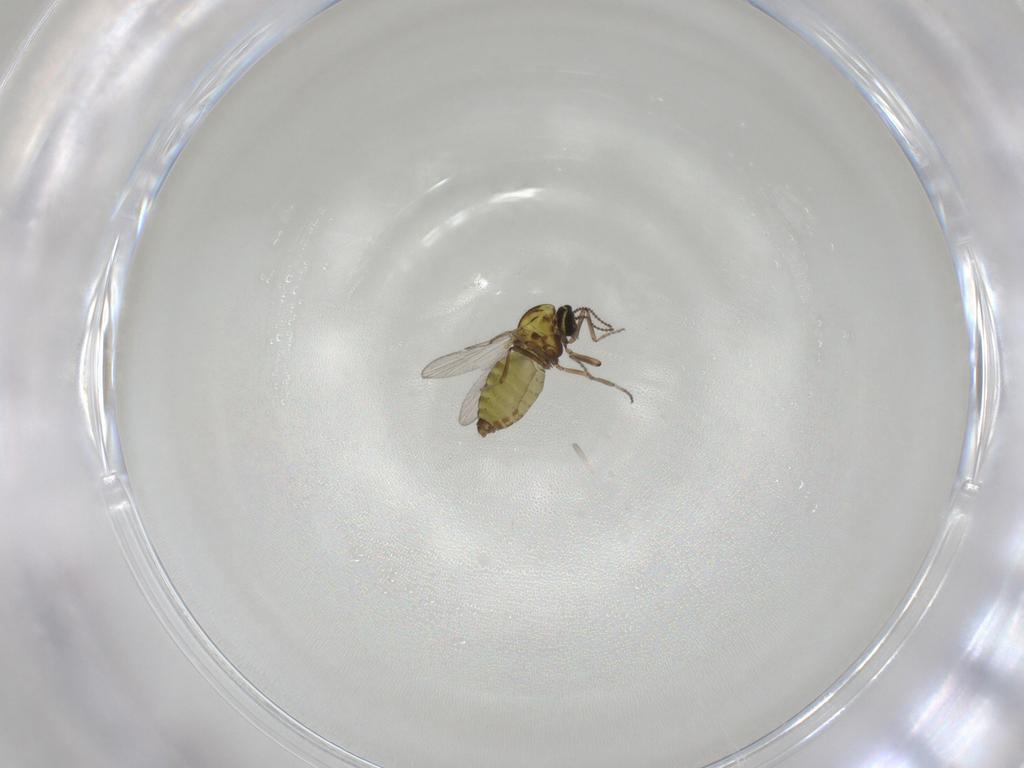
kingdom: Animalia
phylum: Arthropoda
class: Insecta
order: Diptera
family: Ceratopogonidae
